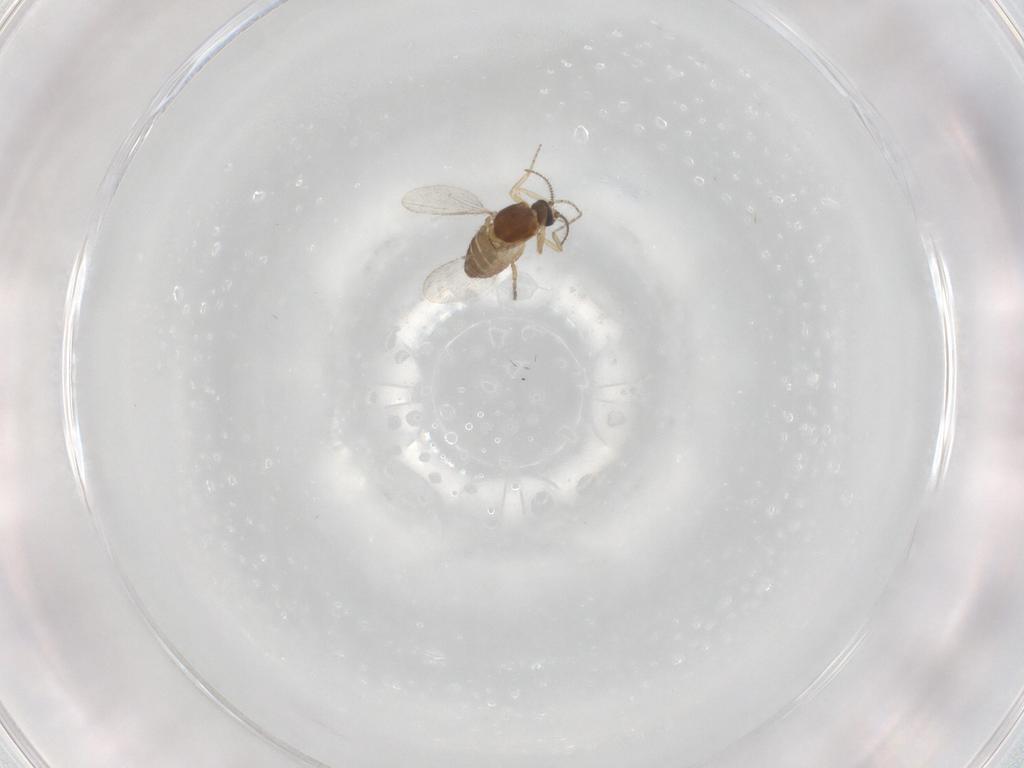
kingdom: Animalia
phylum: Arthropoda
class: Insecta
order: Diptera
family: Ceratopogonidae
